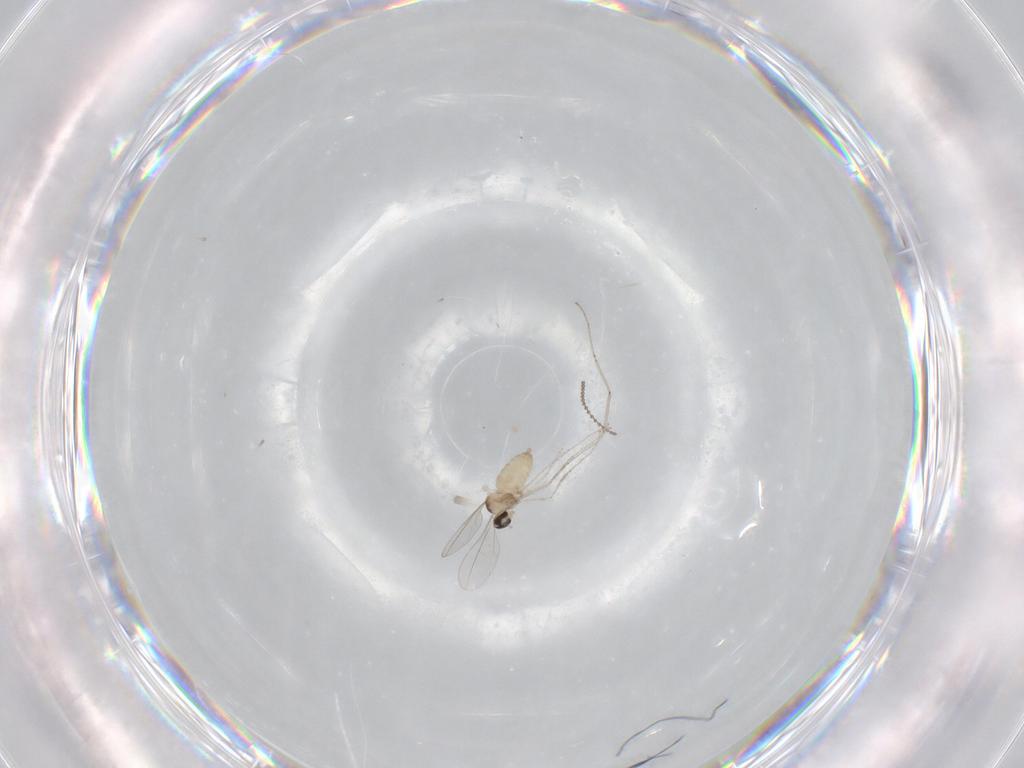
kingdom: Animalia
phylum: Arthropoda
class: Insecta
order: Diptera
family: Cecidomyiidae
